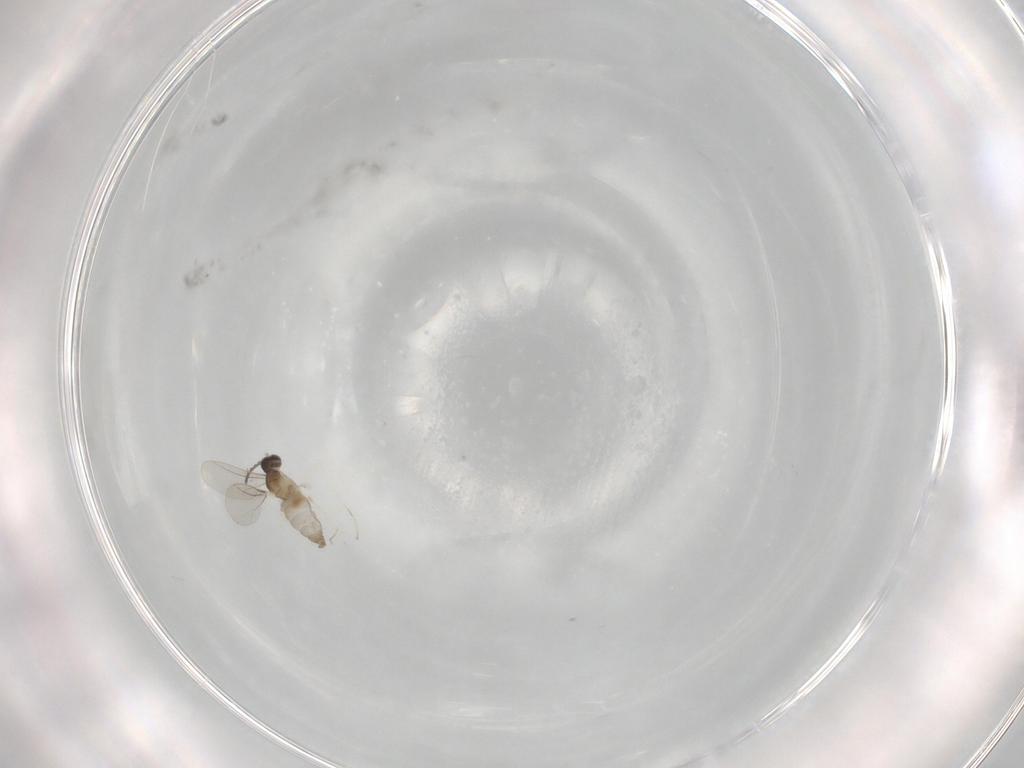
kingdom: Animalia
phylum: Arthropoda
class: Insecta
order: Diptera
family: Cecidomyiidae
